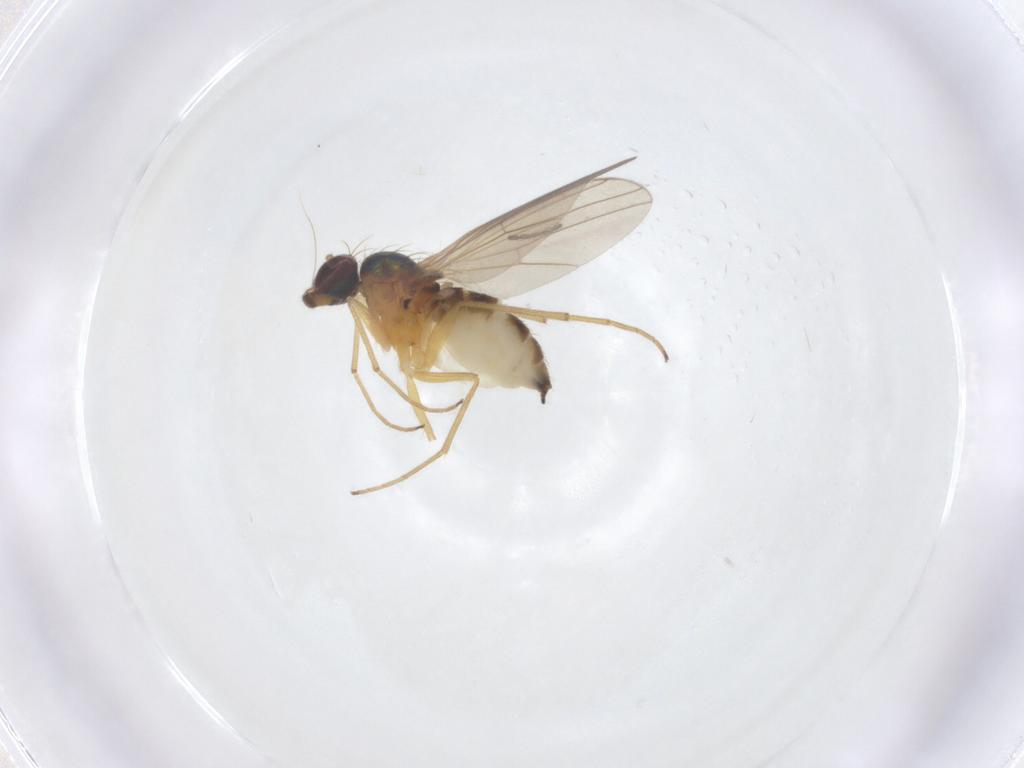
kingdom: Animalia
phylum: Arthropoda
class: Insecta
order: Diptera
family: Dolichopodidae
